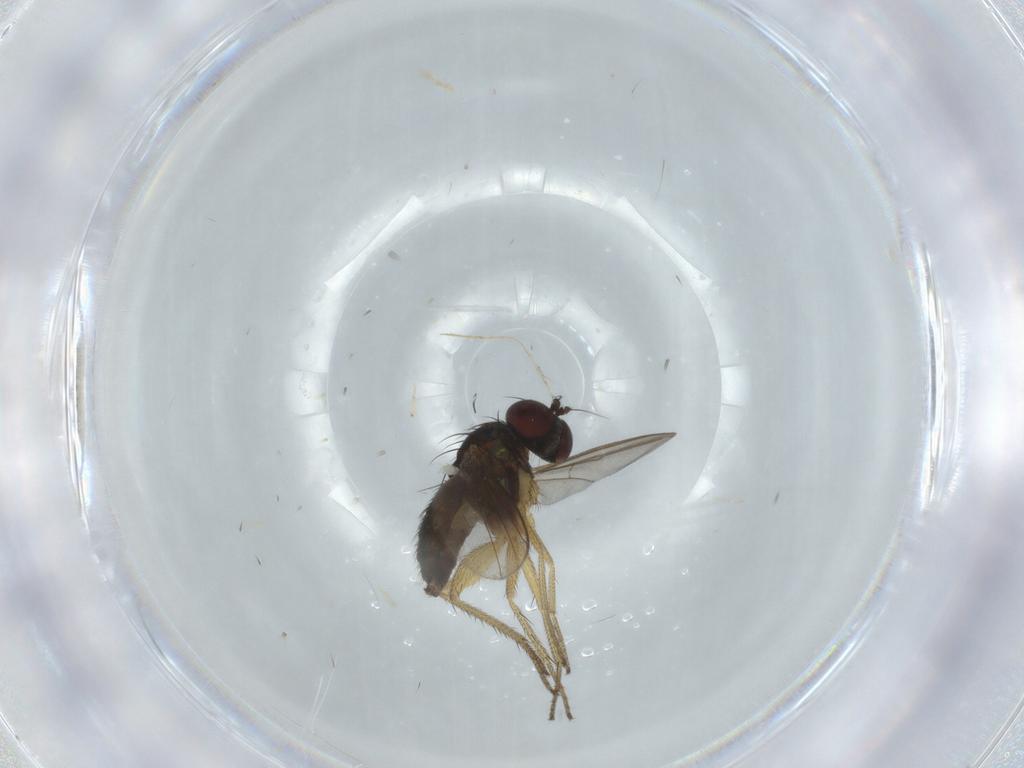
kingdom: Animalia
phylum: Arthropoda
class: Insecta
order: Diptera
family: Dolichopodidae
